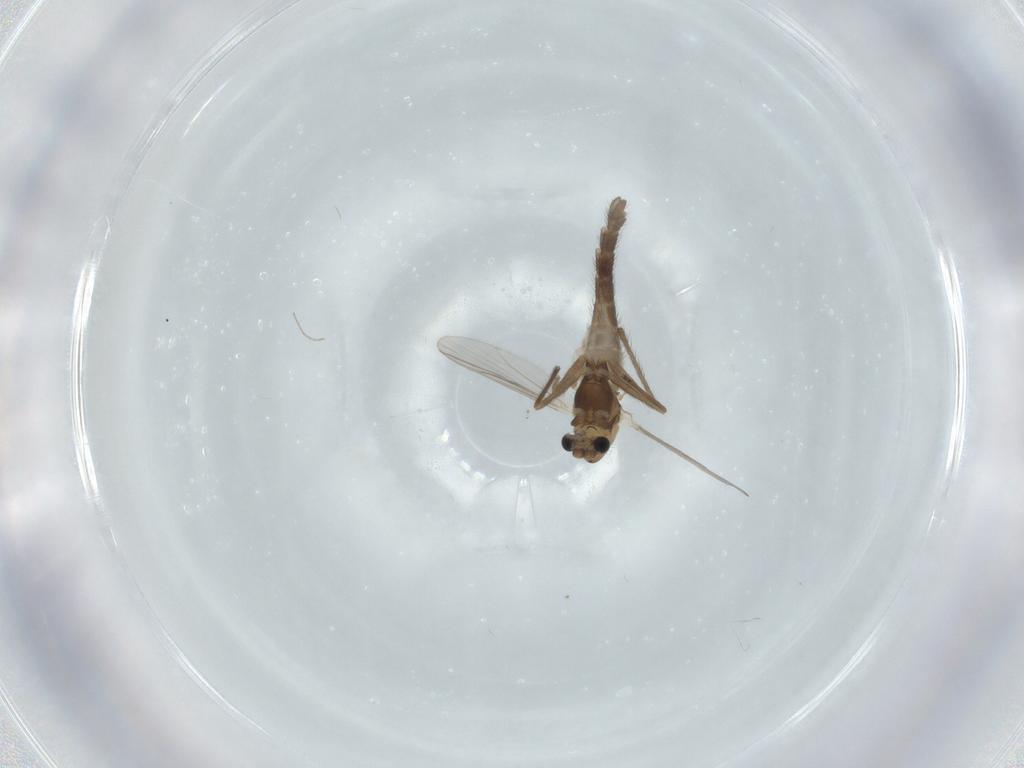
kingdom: Animalia
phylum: Arthropoda
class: Insecta
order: Diptera
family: Chironomidae
